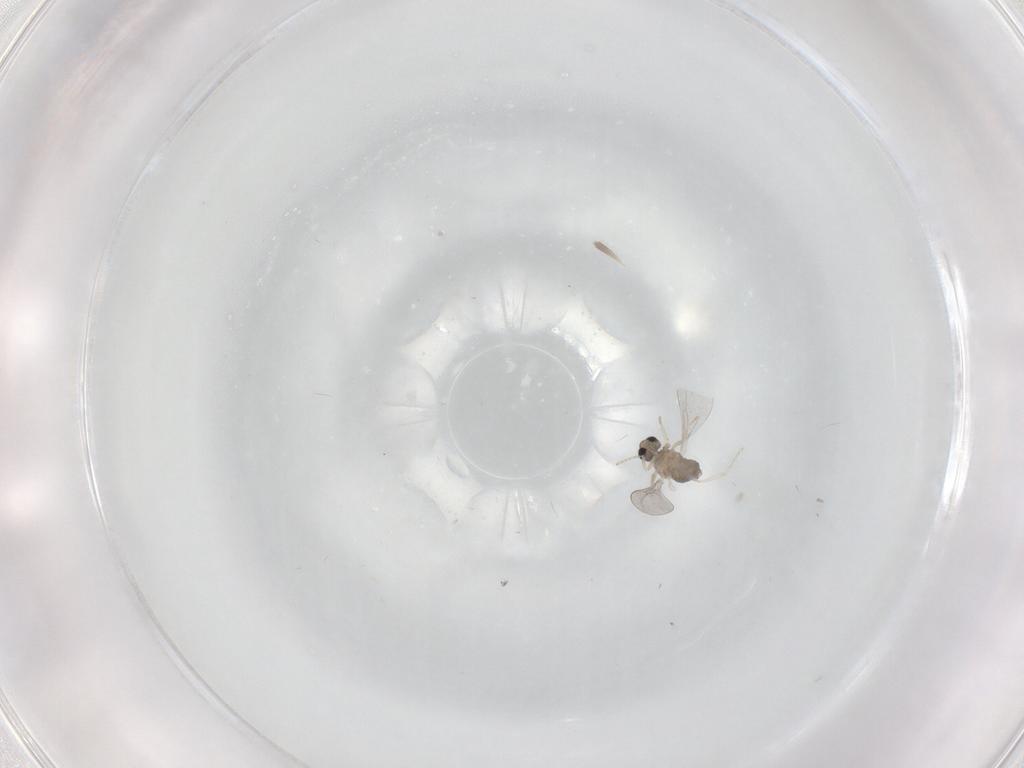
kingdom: Animalia
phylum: Arthropoda
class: Insecta
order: Diptera
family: Cecidomyiidae
